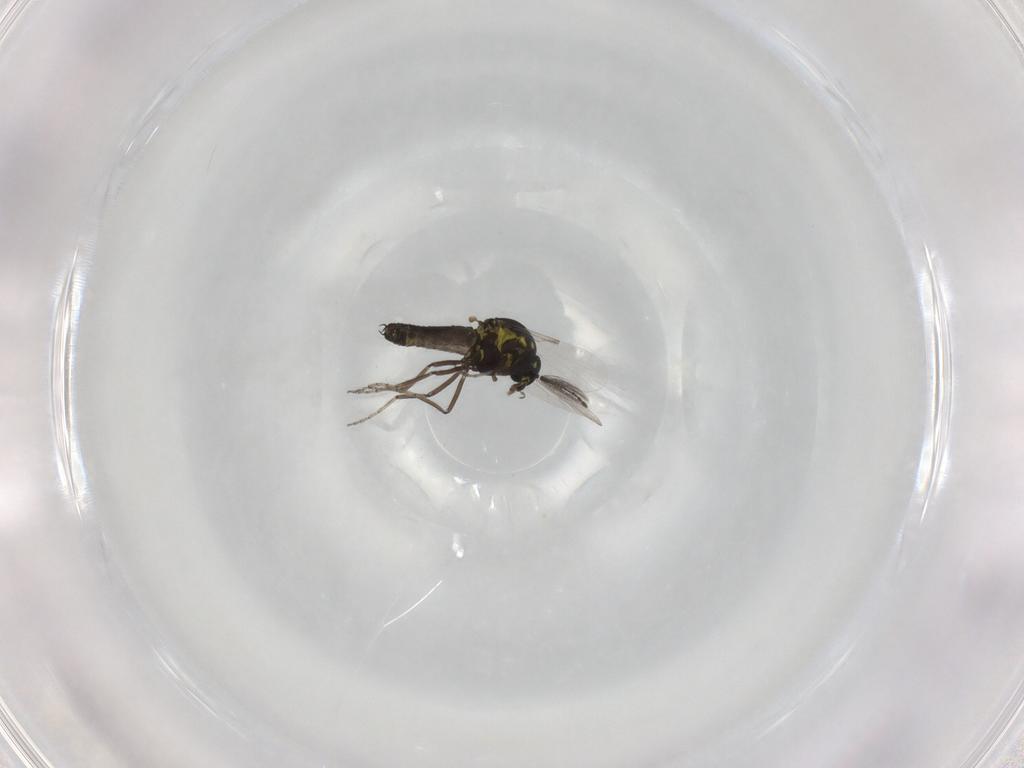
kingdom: Animalia
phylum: Arthropoda
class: Insecta
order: Diptera
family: Ceratopogonidae
